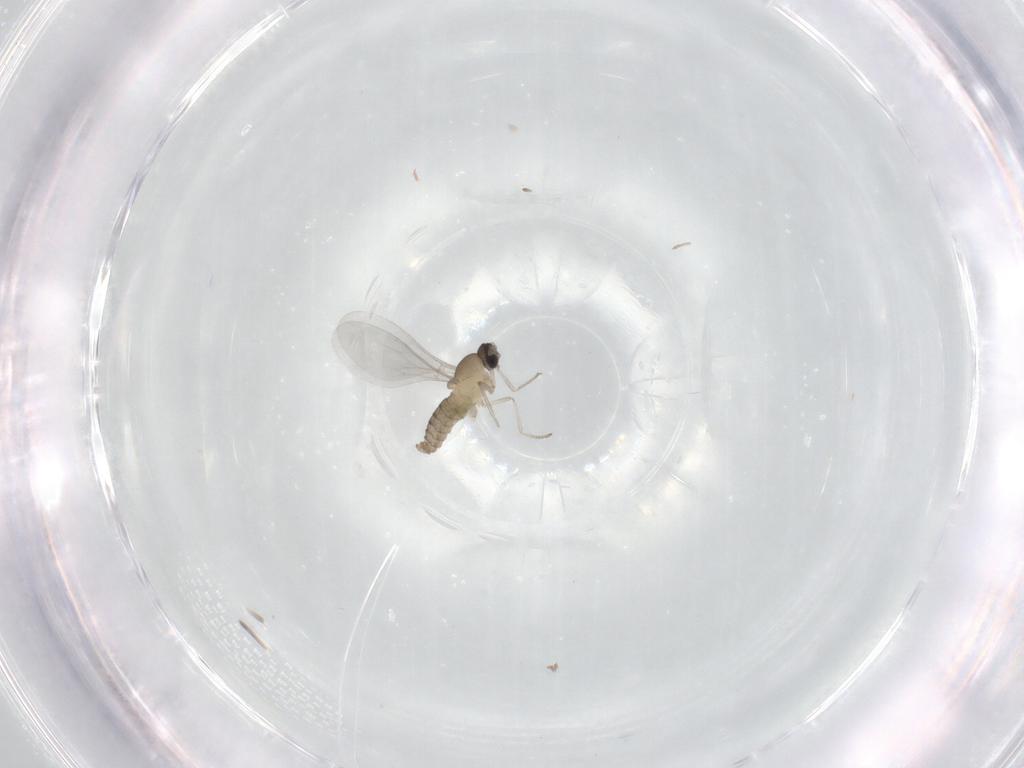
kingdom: Animalia
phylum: Arthropoda
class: Insecta
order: Diptera
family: Cecidomyiidae
